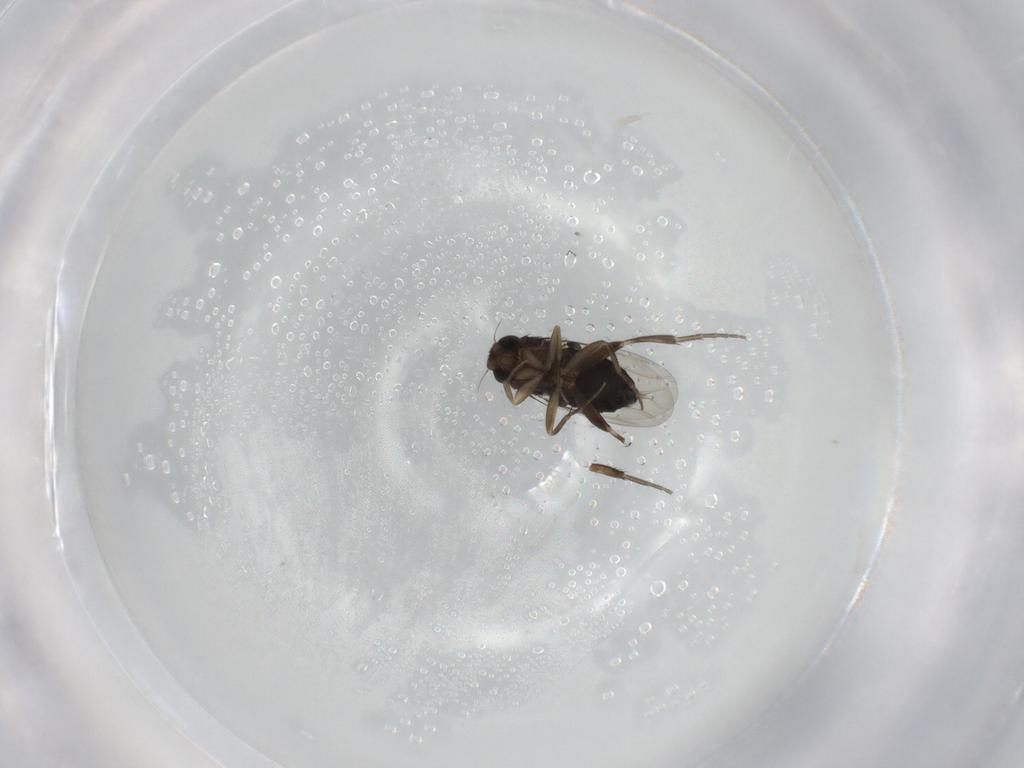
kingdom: Animalia
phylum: Arthropoda
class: Insecta
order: Diptera
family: Phoridae
